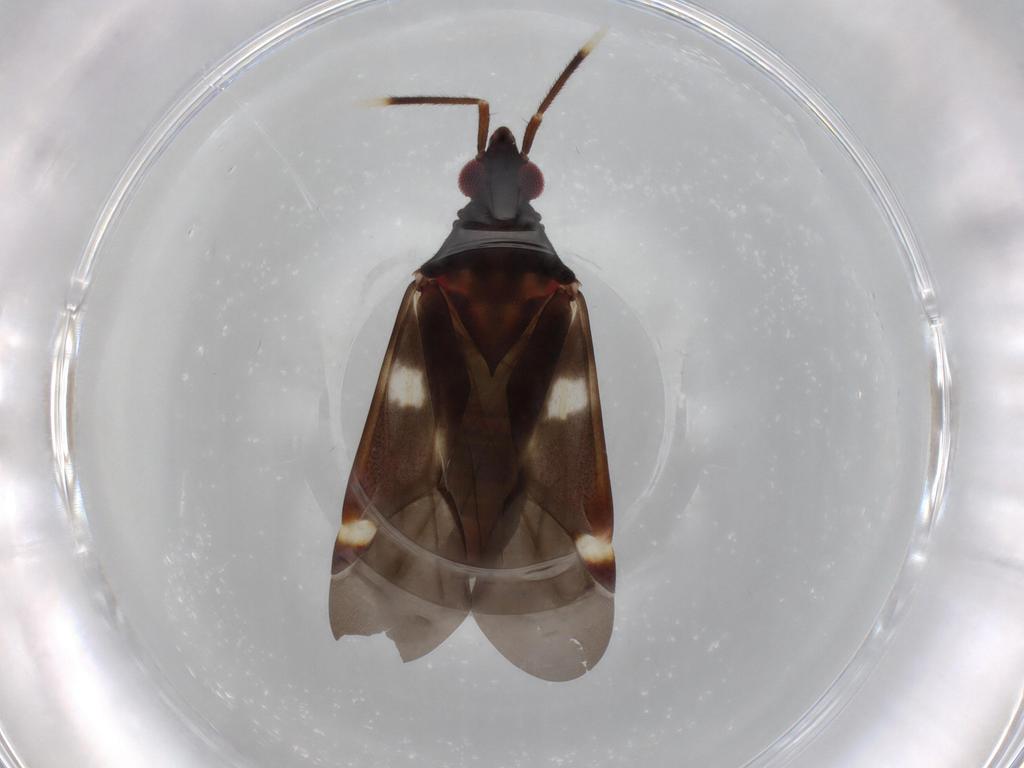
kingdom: Animalia
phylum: Arthropoda
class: Insecta
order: Hemiptera
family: Miridae
